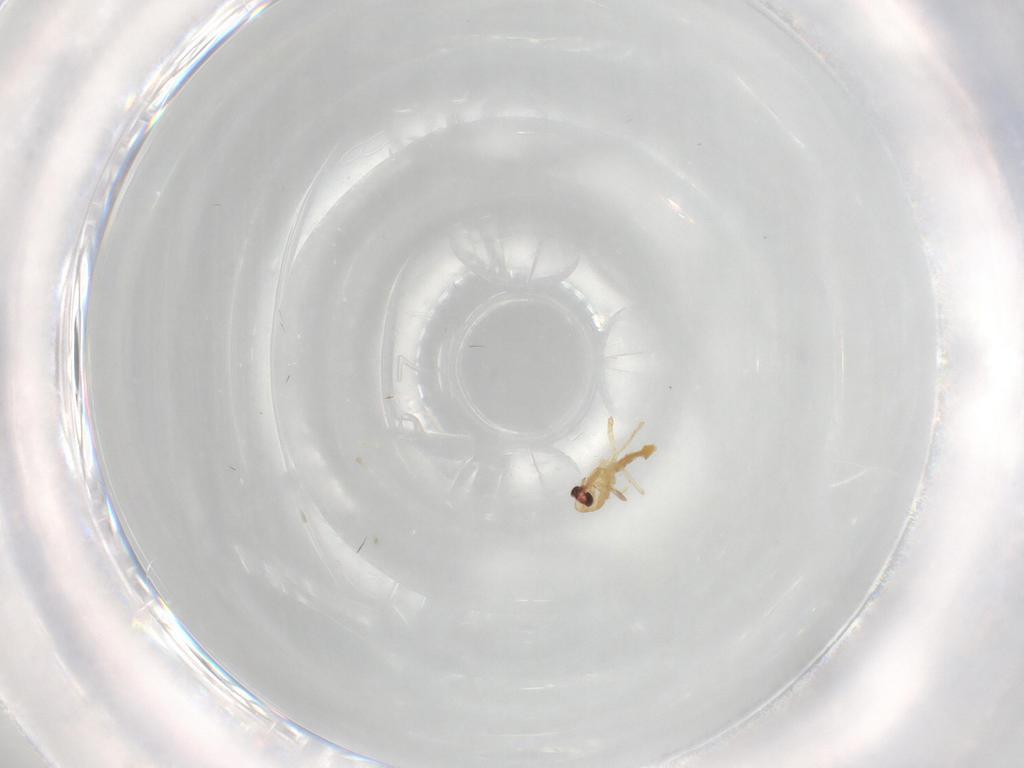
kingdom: Animalia
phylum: Arthropoda
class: Insecta
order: Diptera
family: Chironomidae
